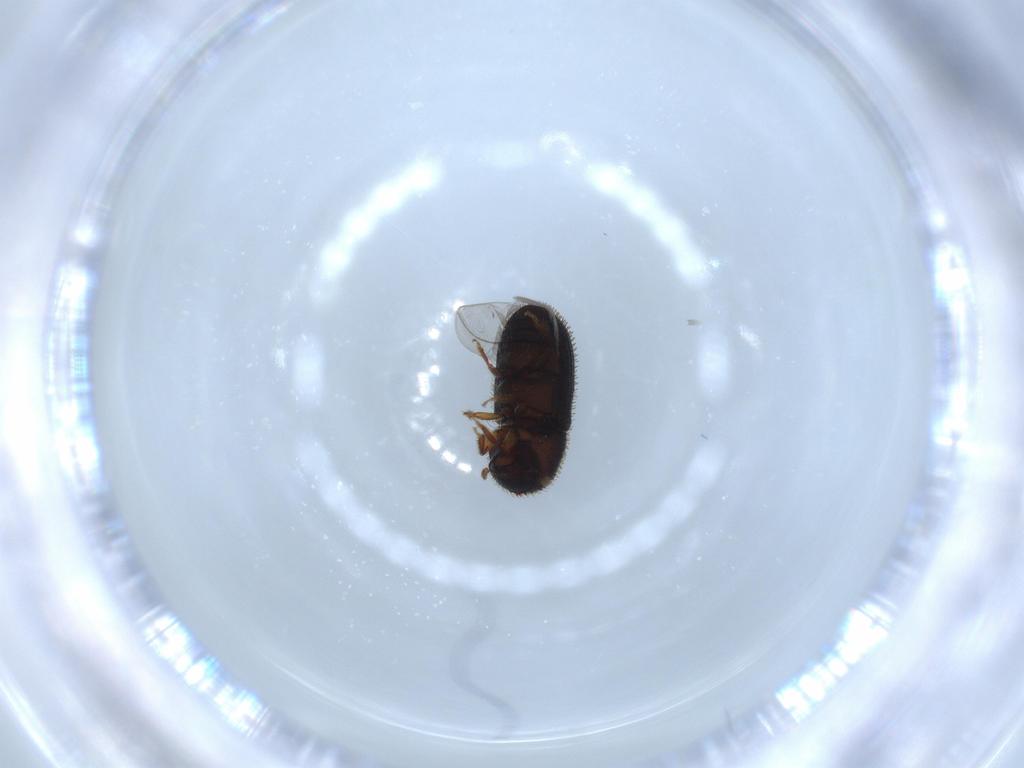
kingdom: Animalia
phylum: Arthropoda
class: Insecta
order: Coleoptera
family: Curculionidae
